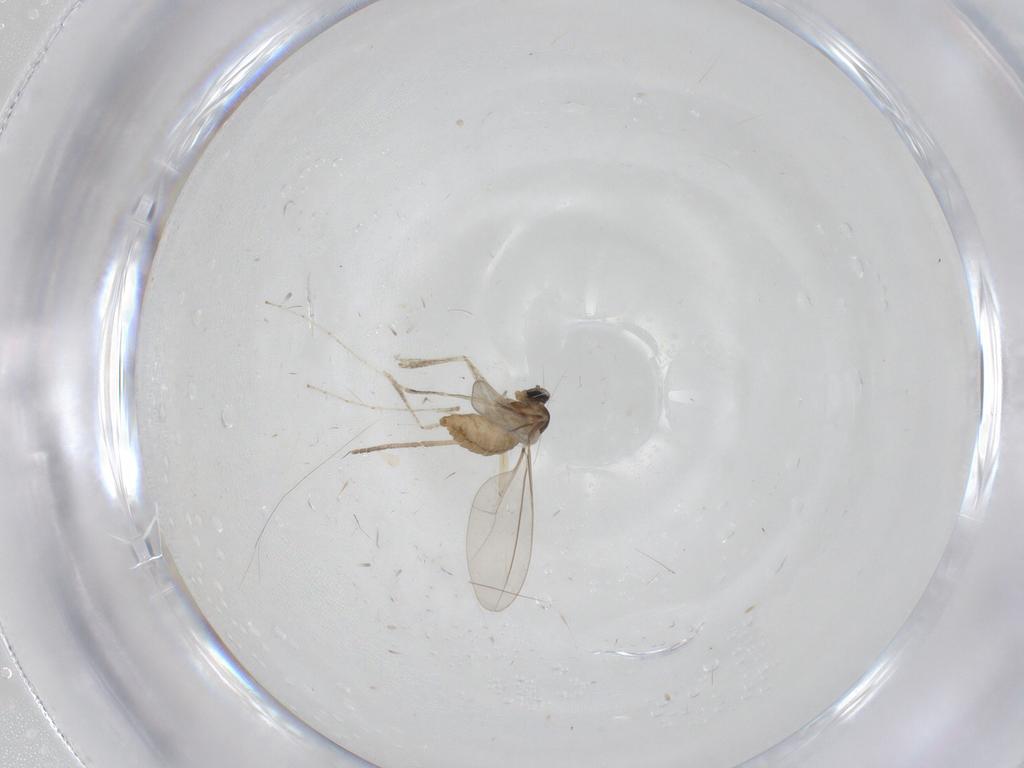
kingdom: Animalia
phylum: Arthropoda
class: Insecta
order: Diptera
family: Cecidomyiidae
